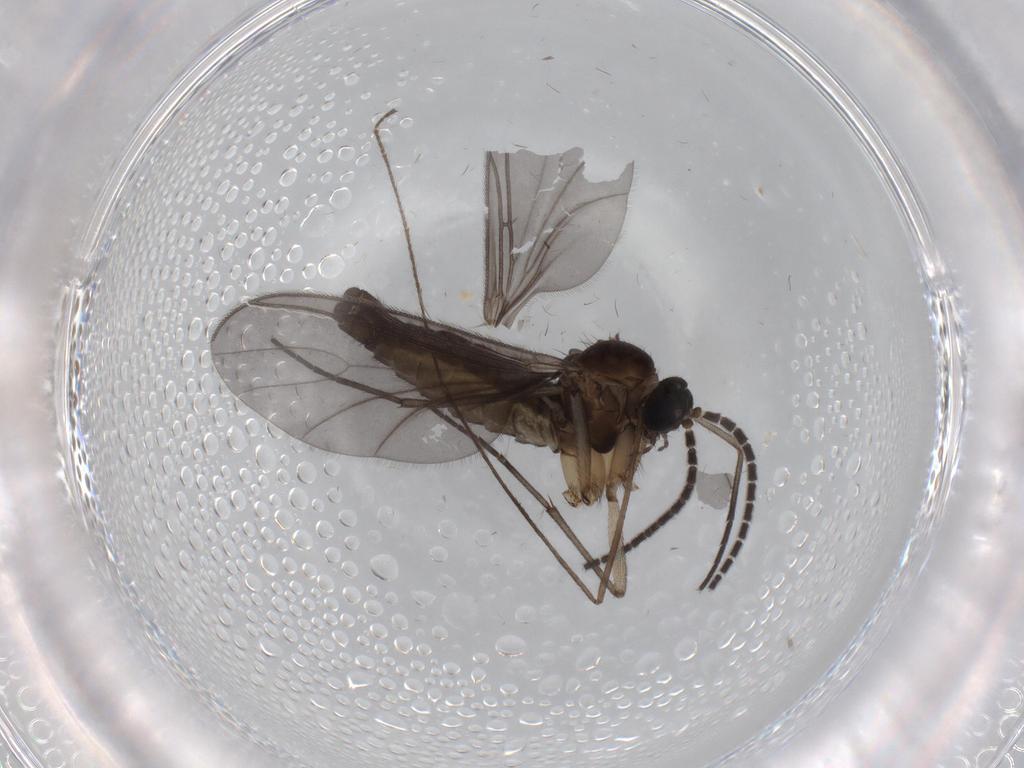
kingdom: Animalia
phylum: Arthropoda
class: Insecta
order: Diptera
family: Sciaridae
